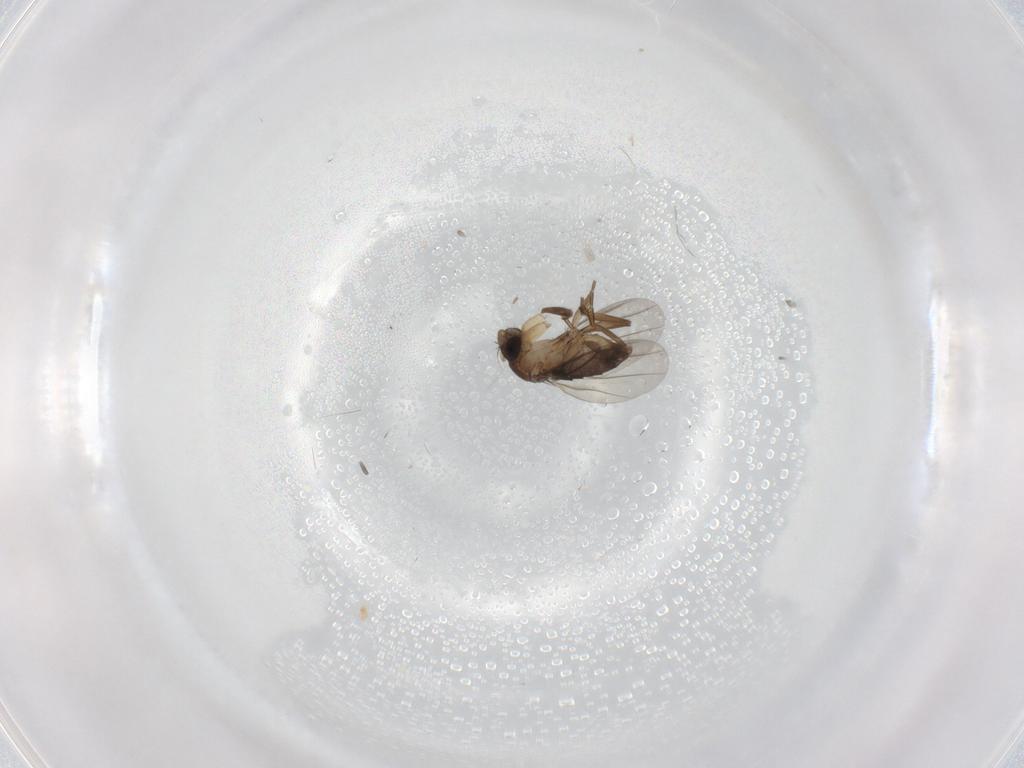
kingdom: Animalia
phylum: Arthropoda
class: Insecta
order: Diptera
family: Phoridae
